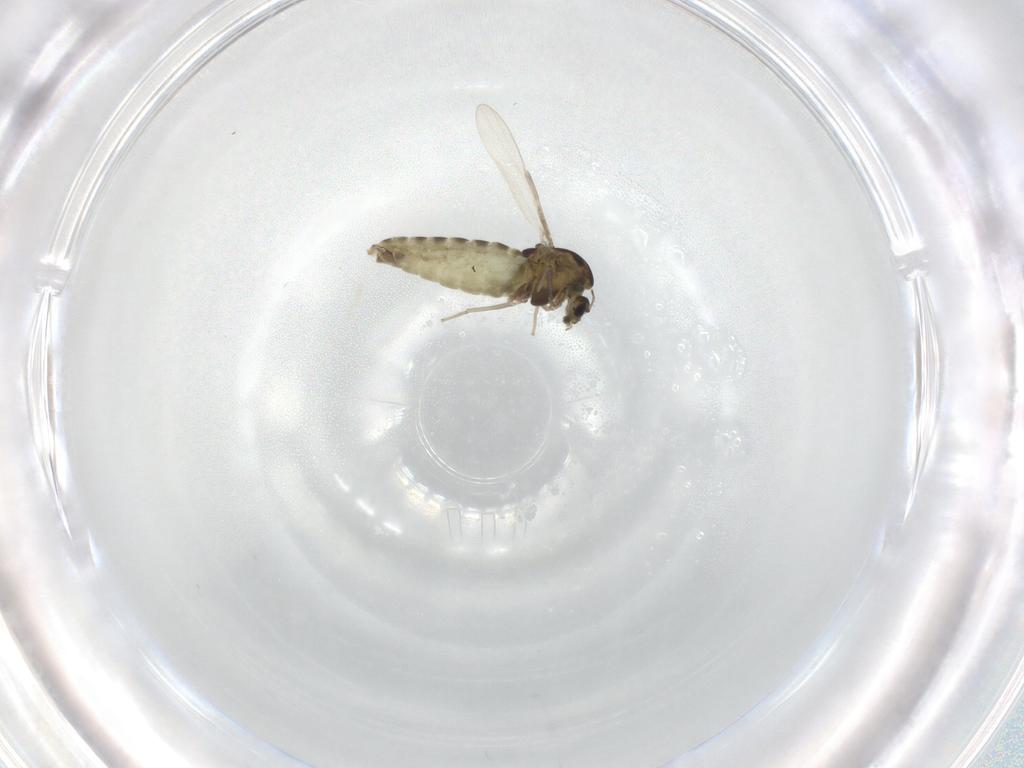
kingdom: Animalia
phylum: Arthropoda
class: Insecta
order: Diptera
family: Chironomidae
